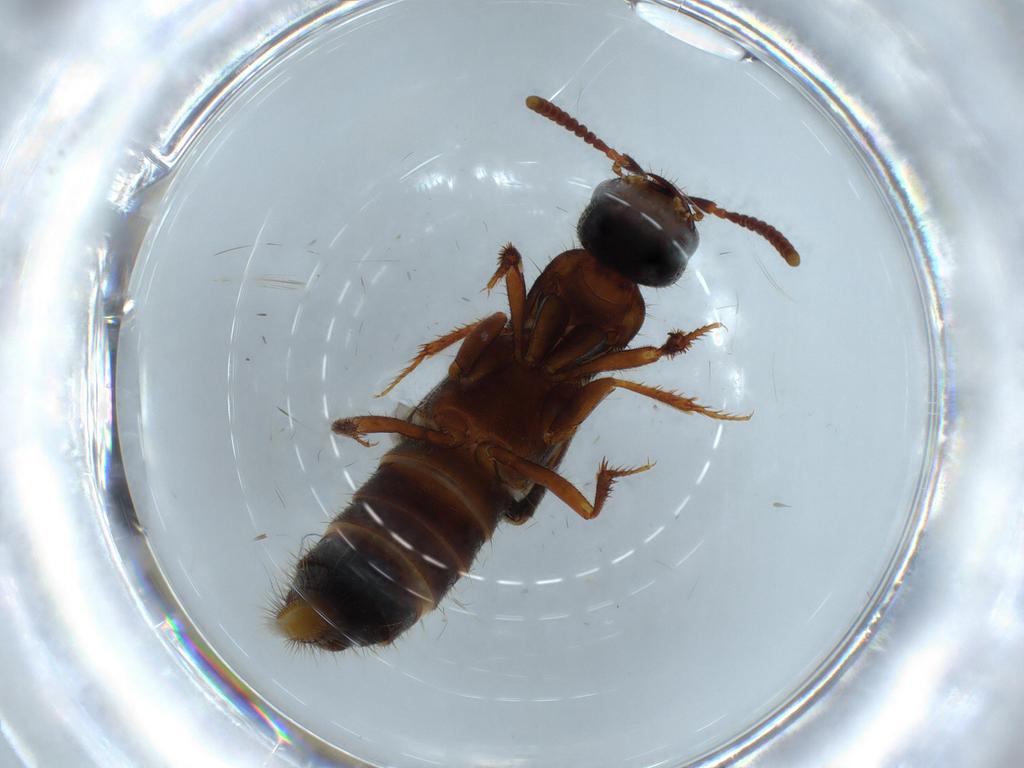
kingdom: Animalia
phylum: Arthropoda
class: Insecta
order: Coleoptera
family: Staphylinidae
